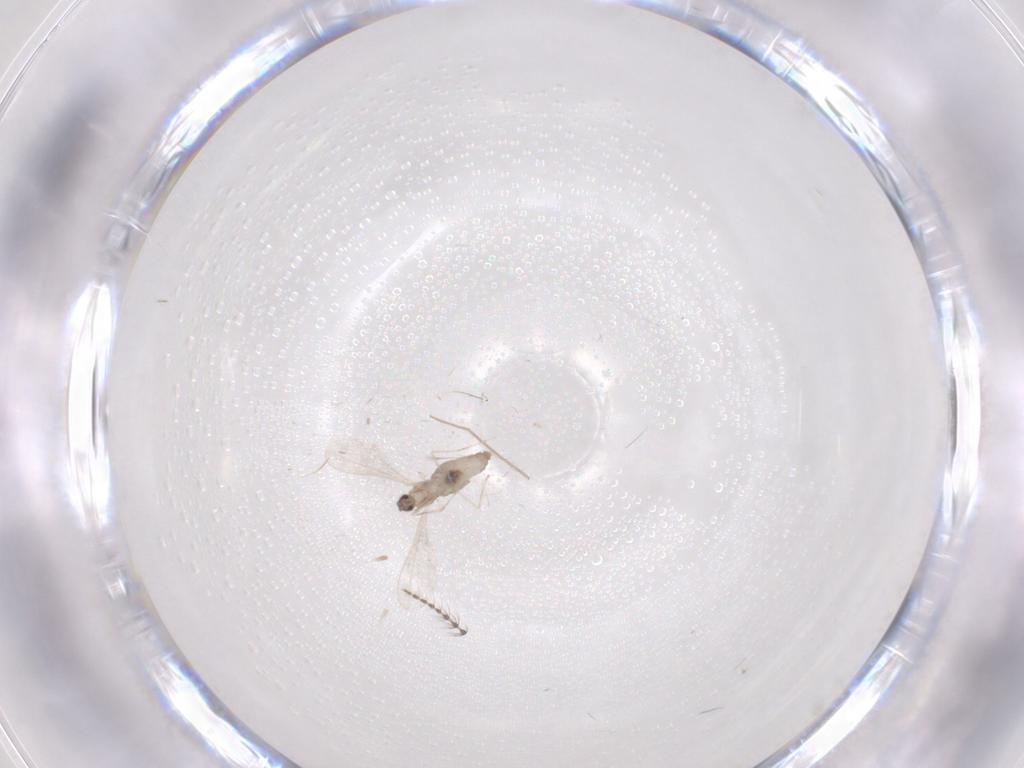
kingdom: Animalia
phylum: Arthropoda
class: Insecta
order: Diptera
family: Cecidomyiidae
